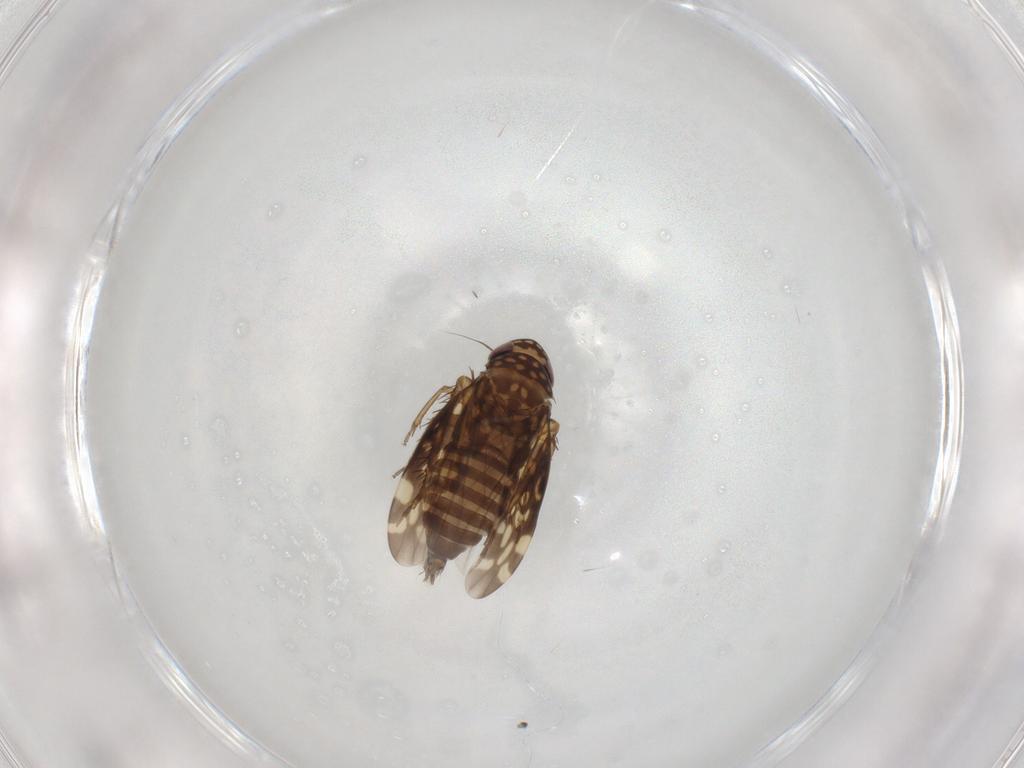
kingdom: Animalia
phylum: Arthropoda
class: Insecta
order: Hemiptera
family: Cicadellidae
